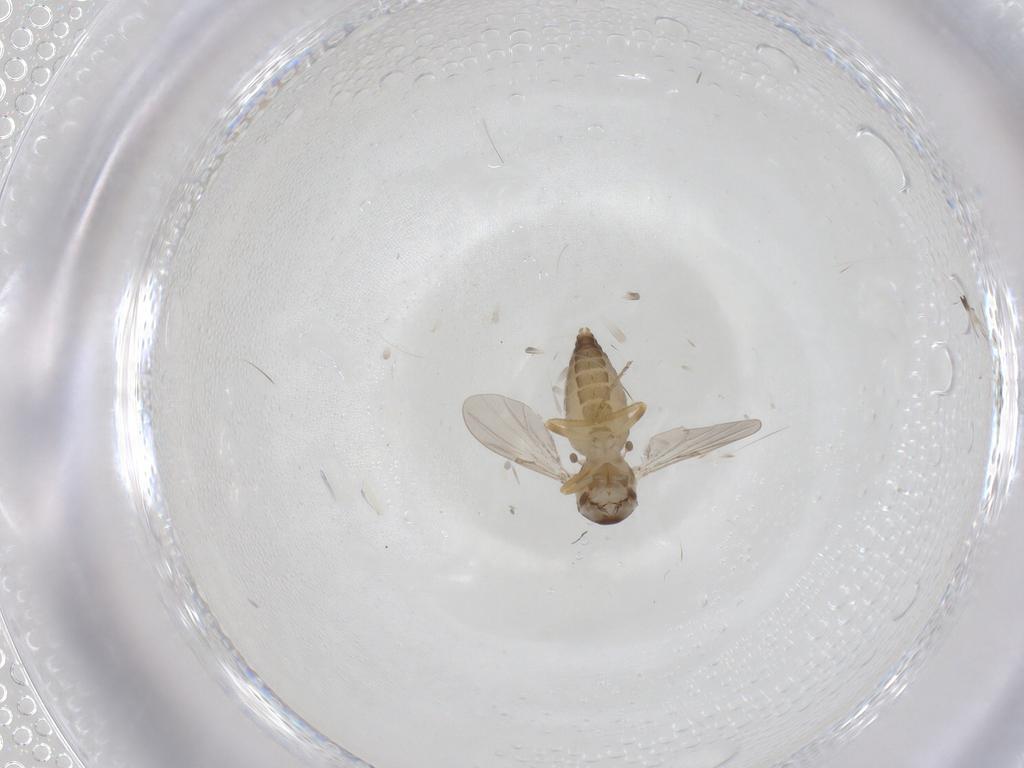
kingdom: Animalia
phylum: Arthropoda
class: Insecta
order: Diptera
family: Ceratopogonidae
